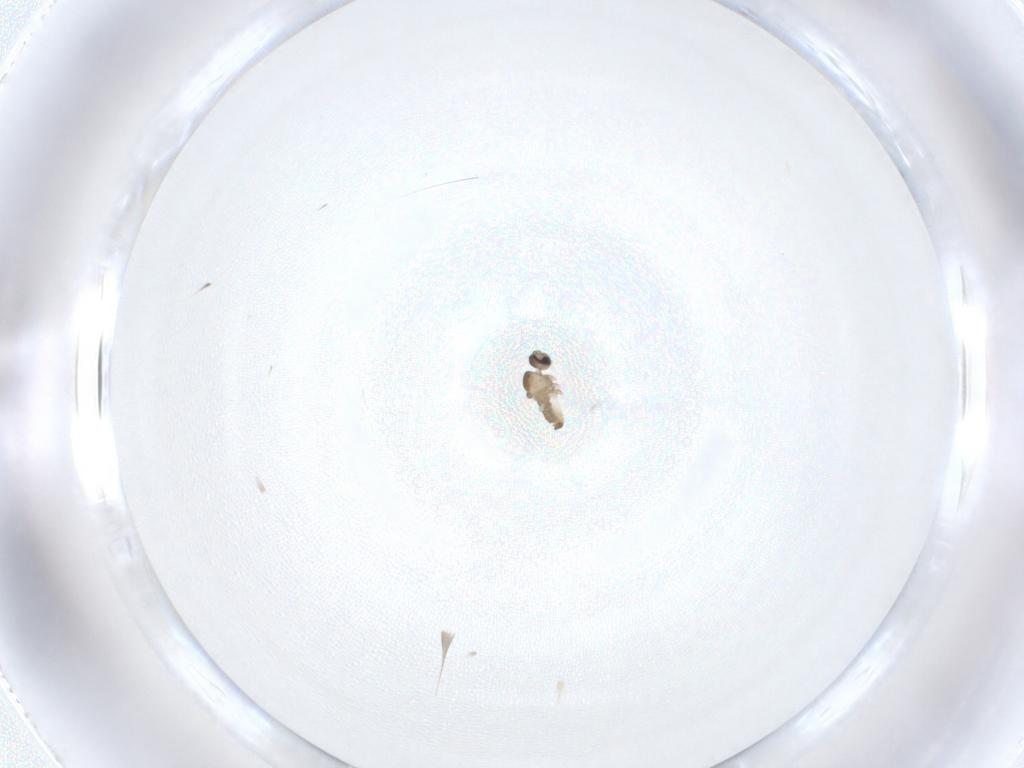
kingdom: Animalia
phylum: Arthropoda
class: Insecta
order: Diptera
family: Cecidomyiidae
